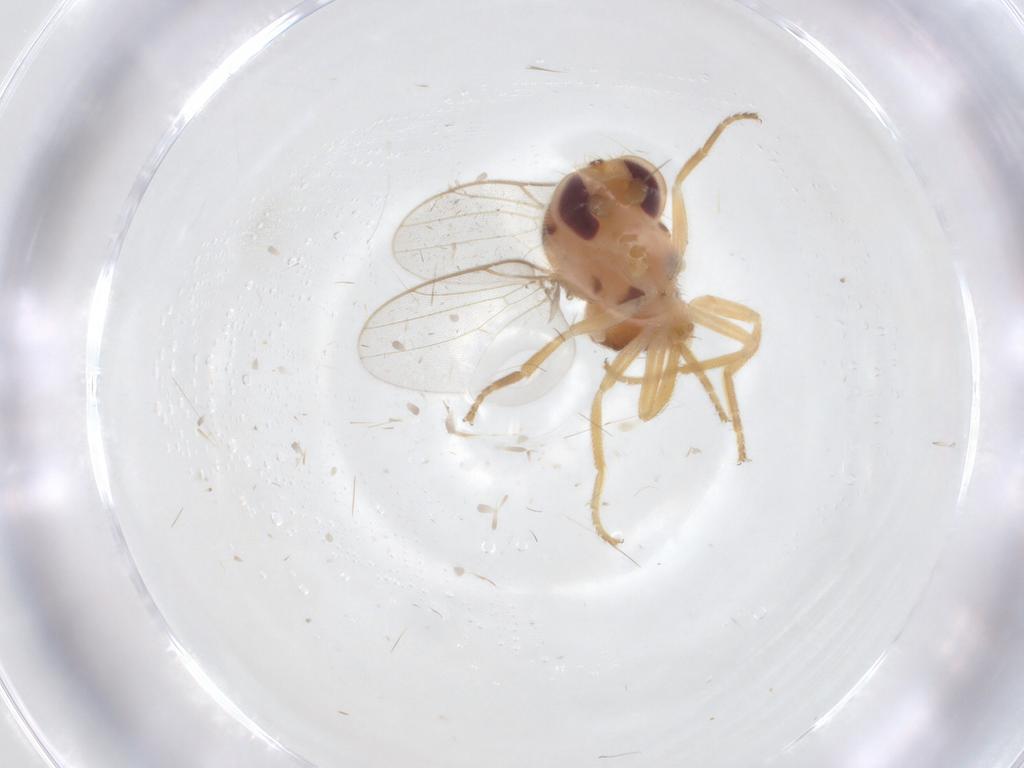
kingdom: Animalia
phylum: Arthropoda
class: Insecta
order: Diptera
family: Chloropidae
